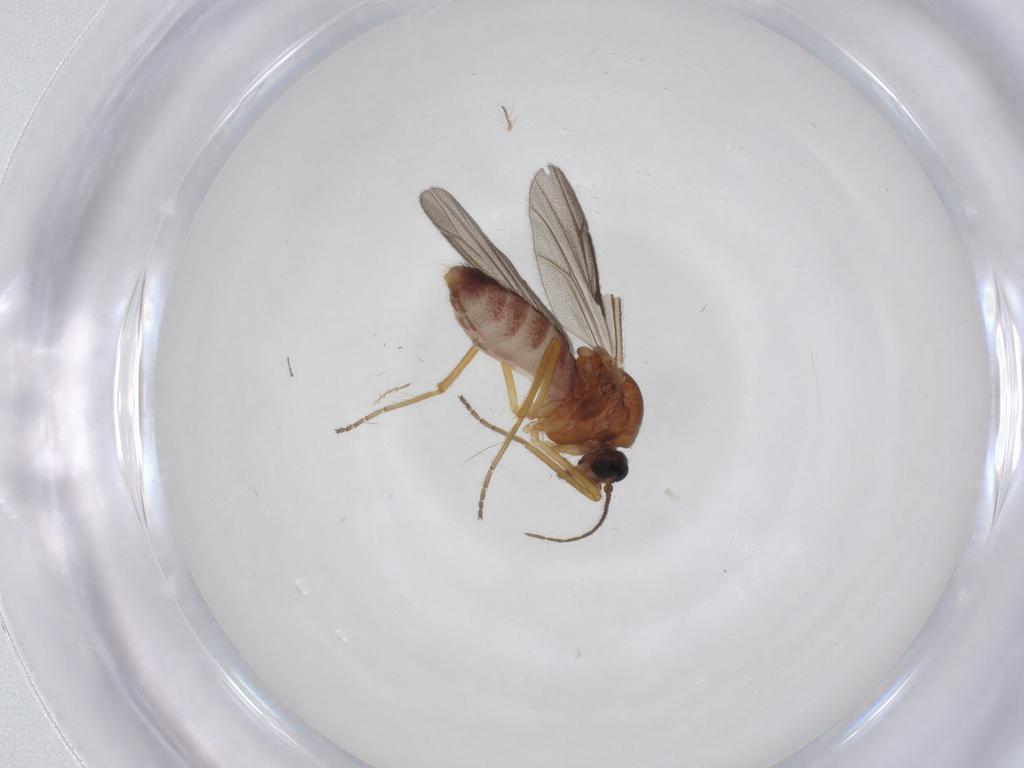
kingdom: Animalia
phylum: Arthropoda
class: Insecta
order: Diptera
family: Ceratopogonidae
